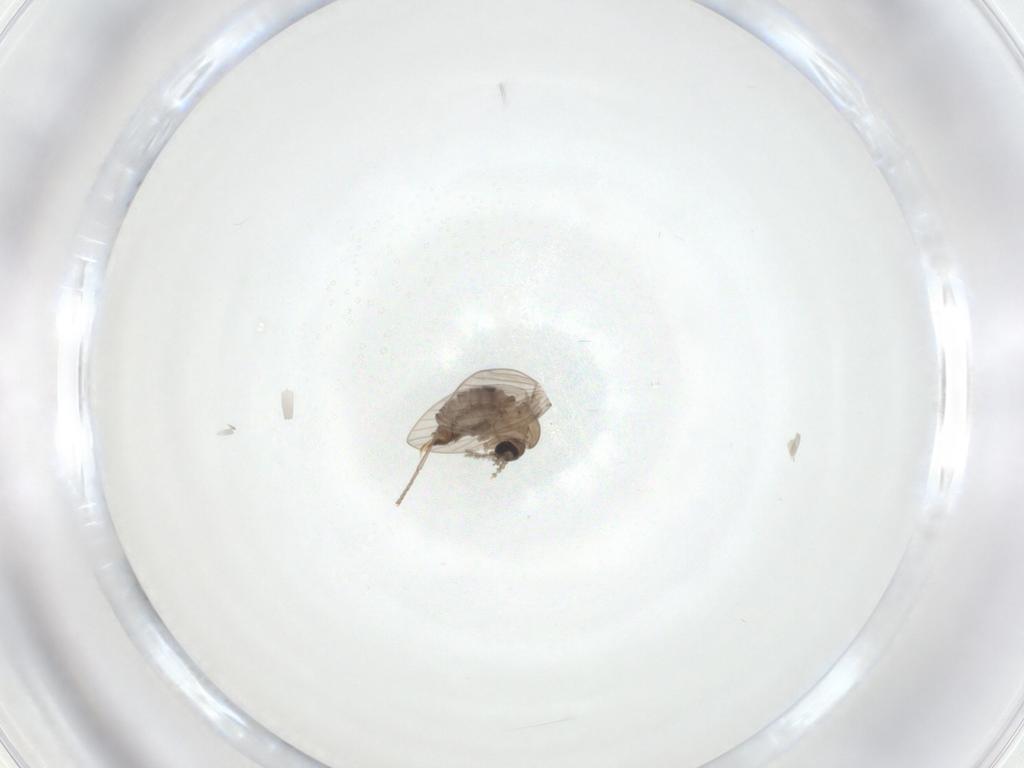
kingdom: Animalia
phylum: Arthropoda
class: Insecta
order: Diptera
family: Psychodidae
